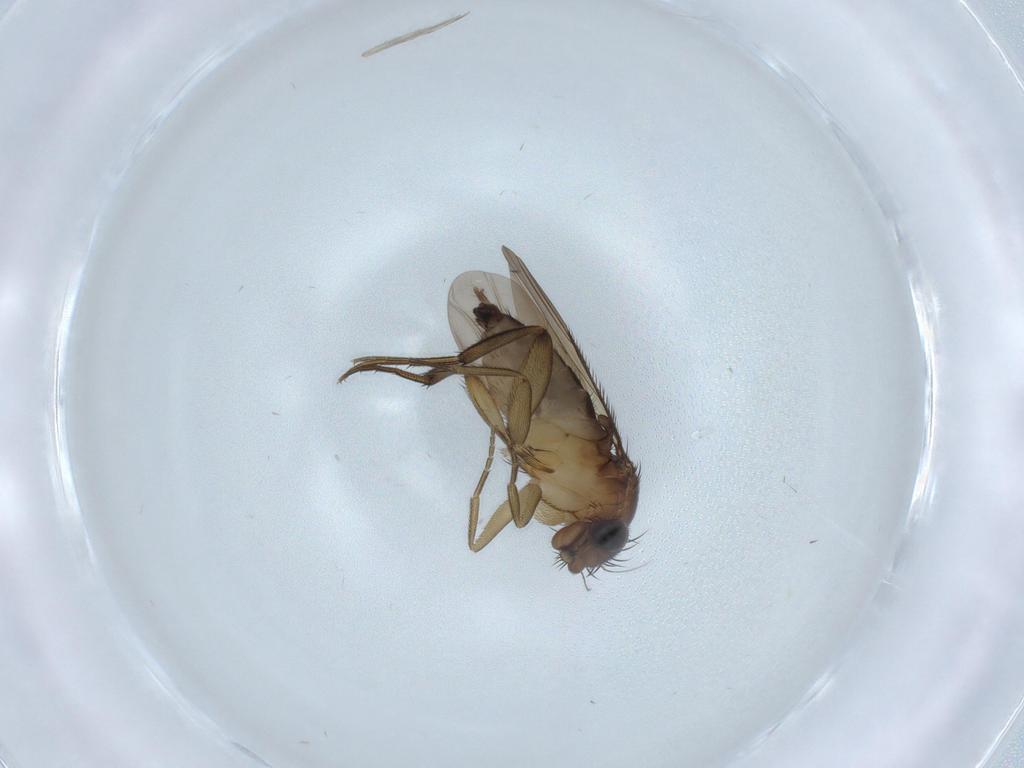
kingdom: Animalia
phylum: Arthropoda
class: Insecta
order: Diptera
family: Phoridae
